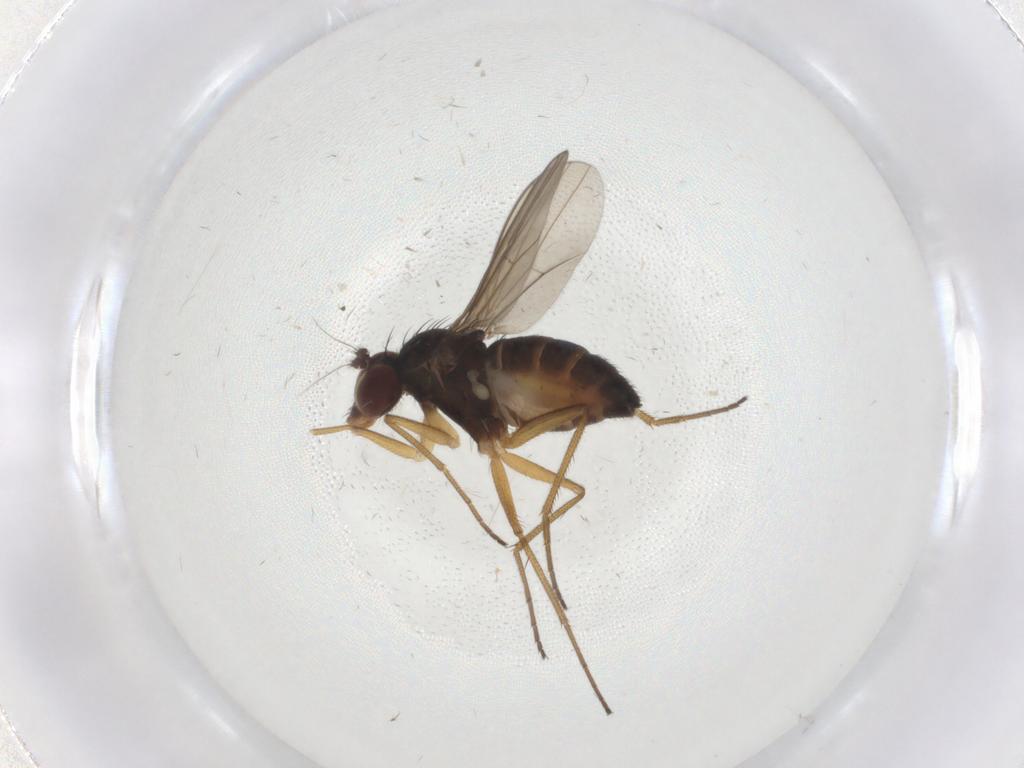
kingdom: Animalia
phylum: Arthropoda
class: Insecta
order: Diptera
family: Dolichopodidae
